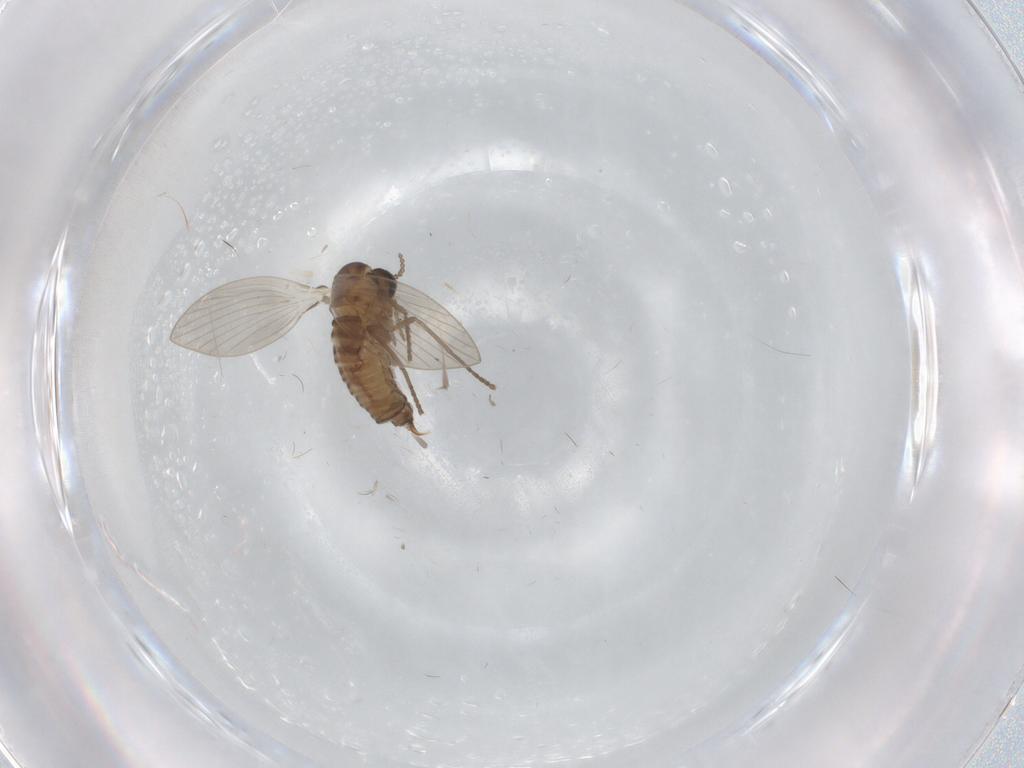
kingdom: Animalia
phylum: Arthropoda
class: Insecta
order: Diptera
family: Psychodidae
